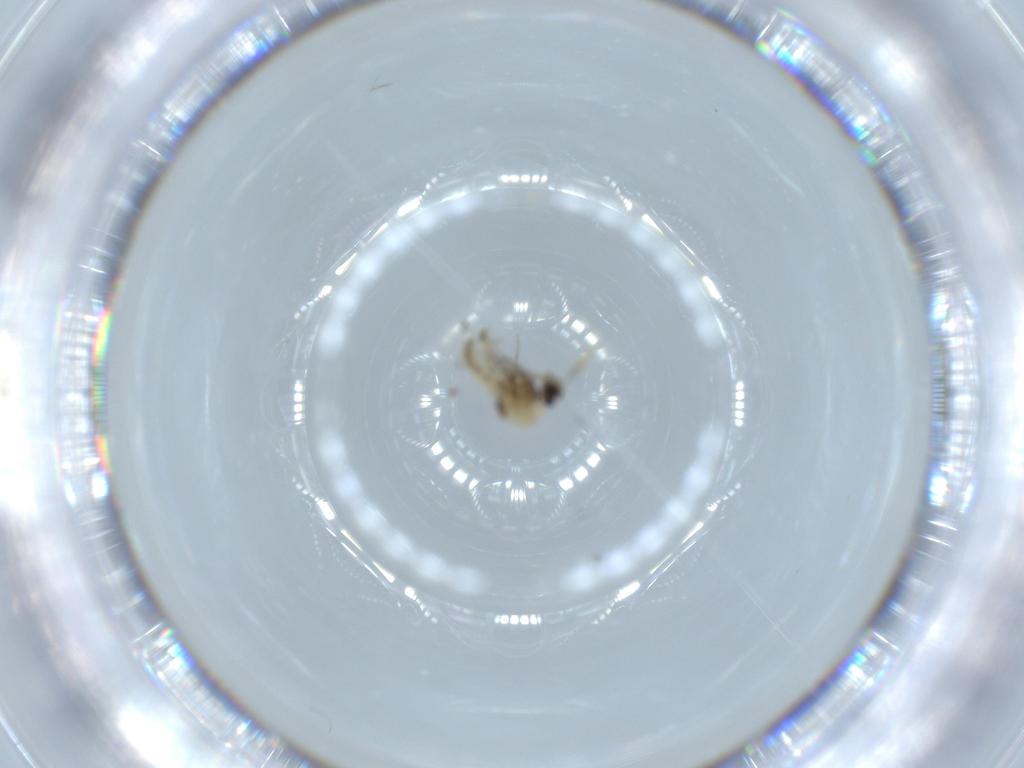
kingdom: Animalia
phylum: Arthropoda
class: Insecta
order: Diptera
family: Ceratopogonidae
